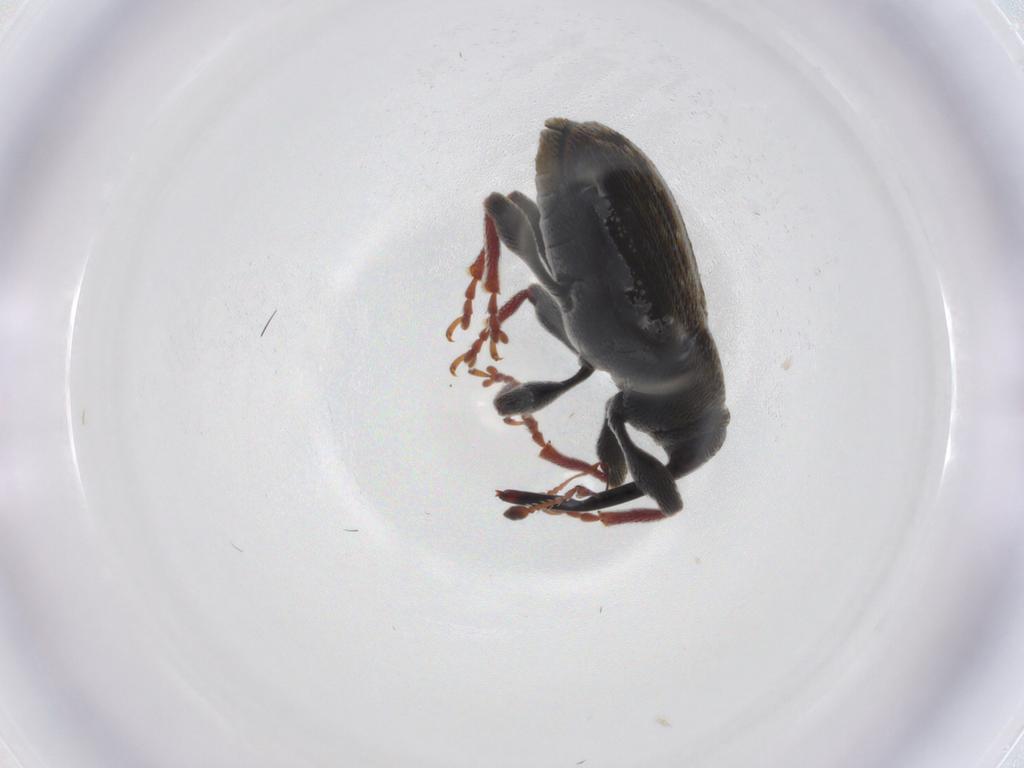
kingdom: Animalia
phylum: Arthropoda
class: Insecta
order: Coleoptera
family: Curculionidae
